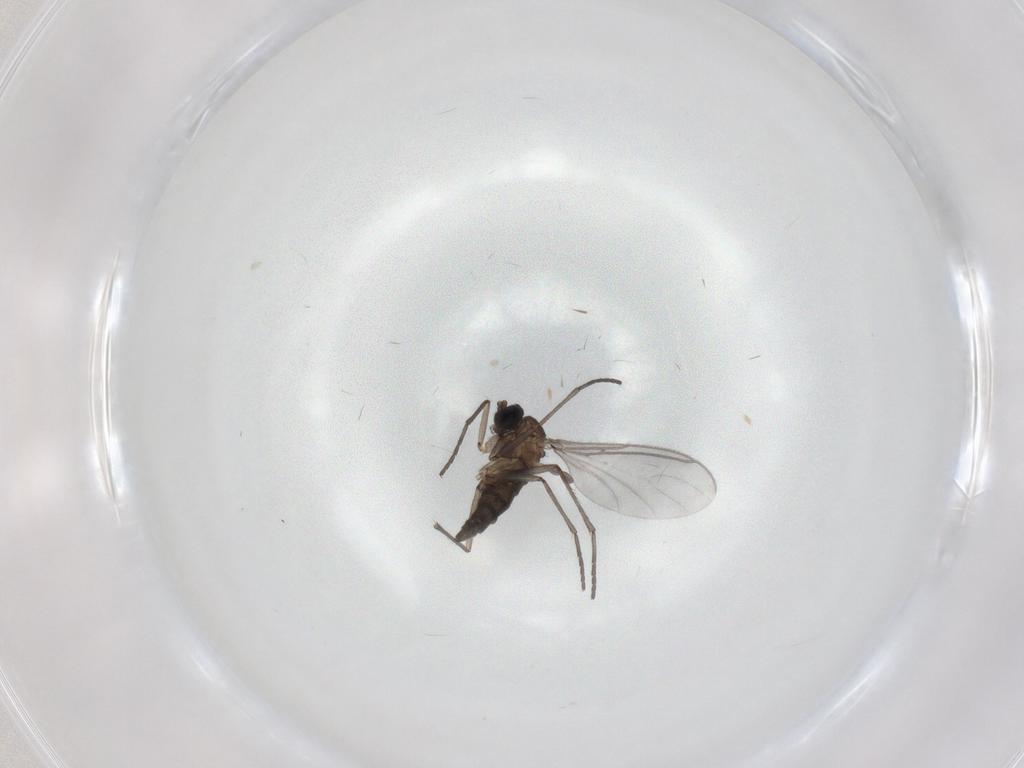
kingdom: Animalia
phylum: Arthropoda
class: Insecta
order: Diptera
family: Sciaridae
